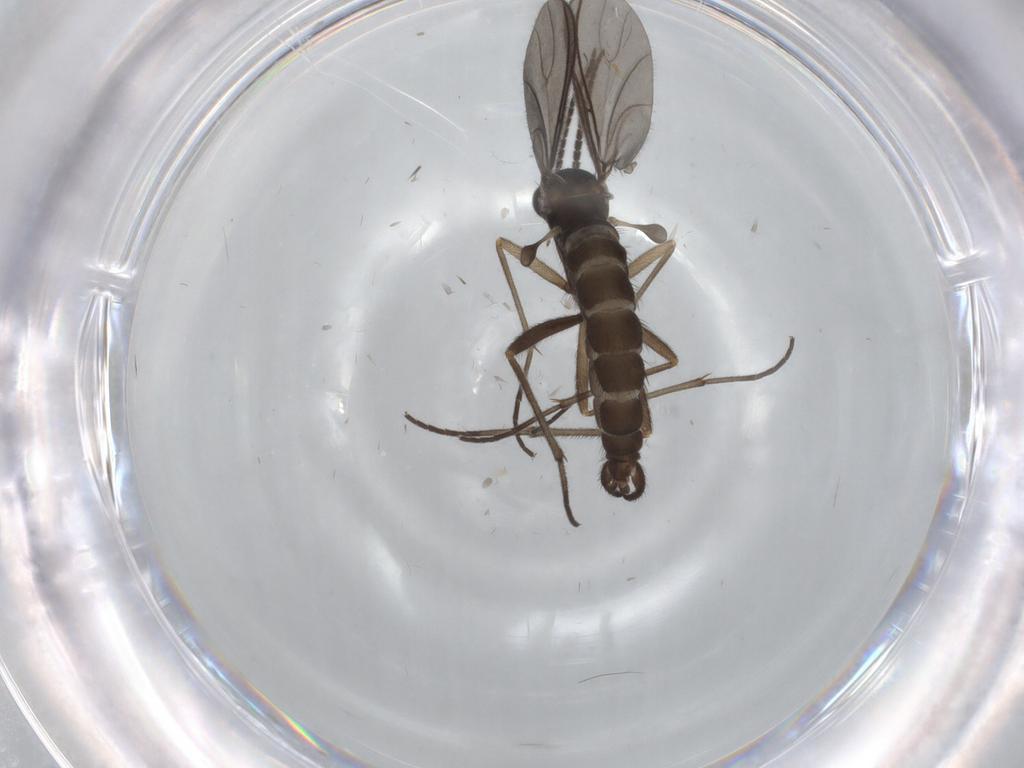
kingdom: Animalia
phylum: Arthropoda
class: Insecta
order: Diptera
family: Sciaridae
